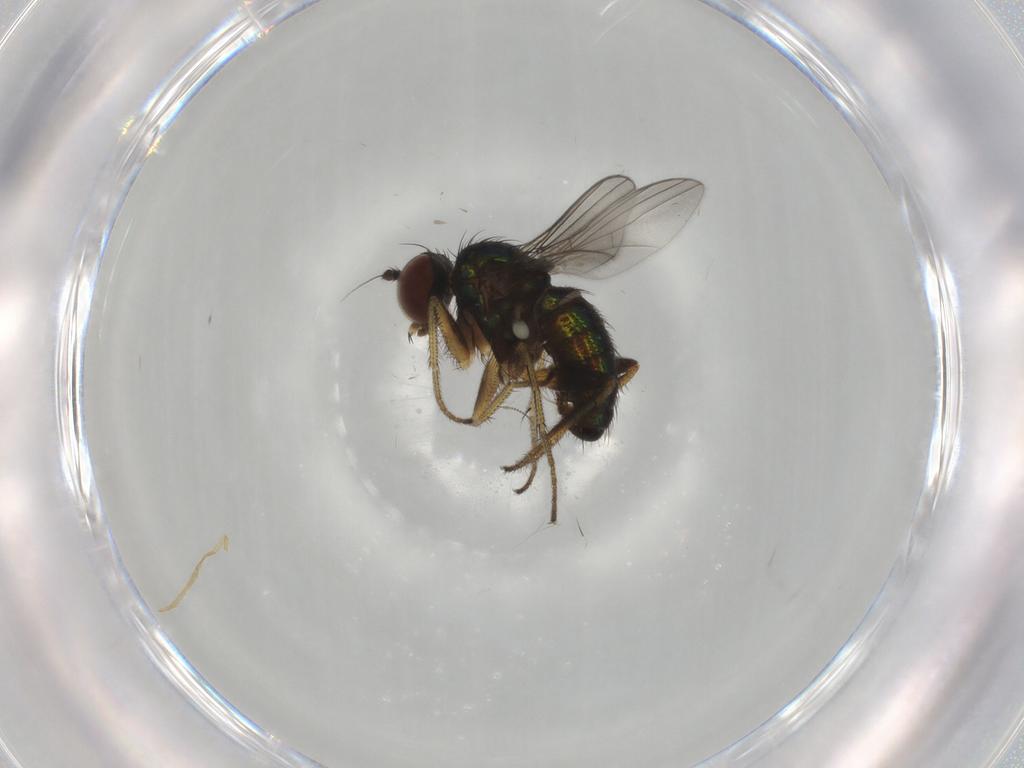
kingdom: Animalia
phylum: Arthropoda
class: Insecta
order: Diptera
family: Dolichopodidae
